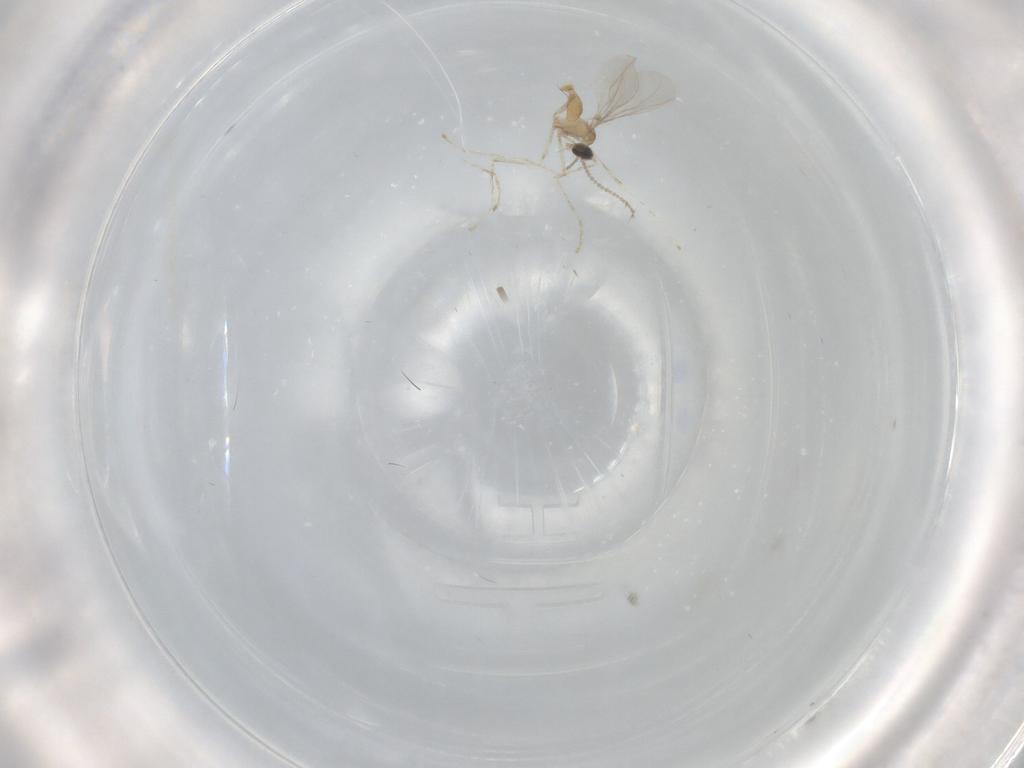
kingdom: Animalia
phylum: Arthropoda
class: Insecta
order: Diptera
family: Cecidomyiidae
